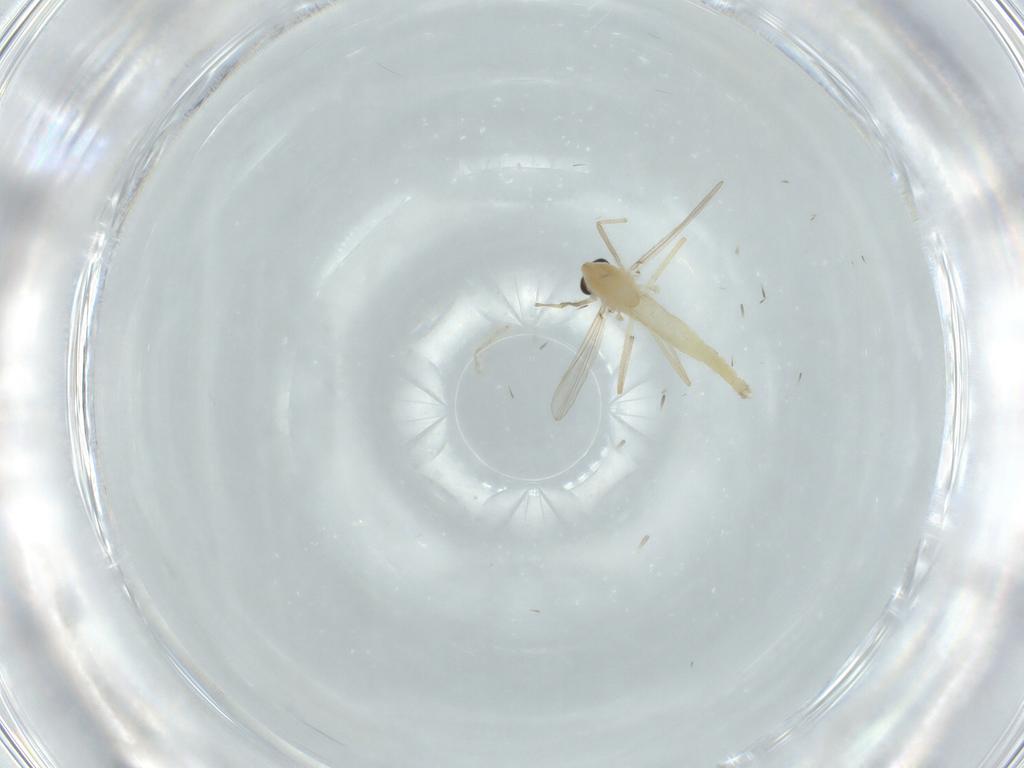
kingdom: Animalia
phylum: Arthropoda
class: Insecta
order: Diptera
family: Chironomidae
